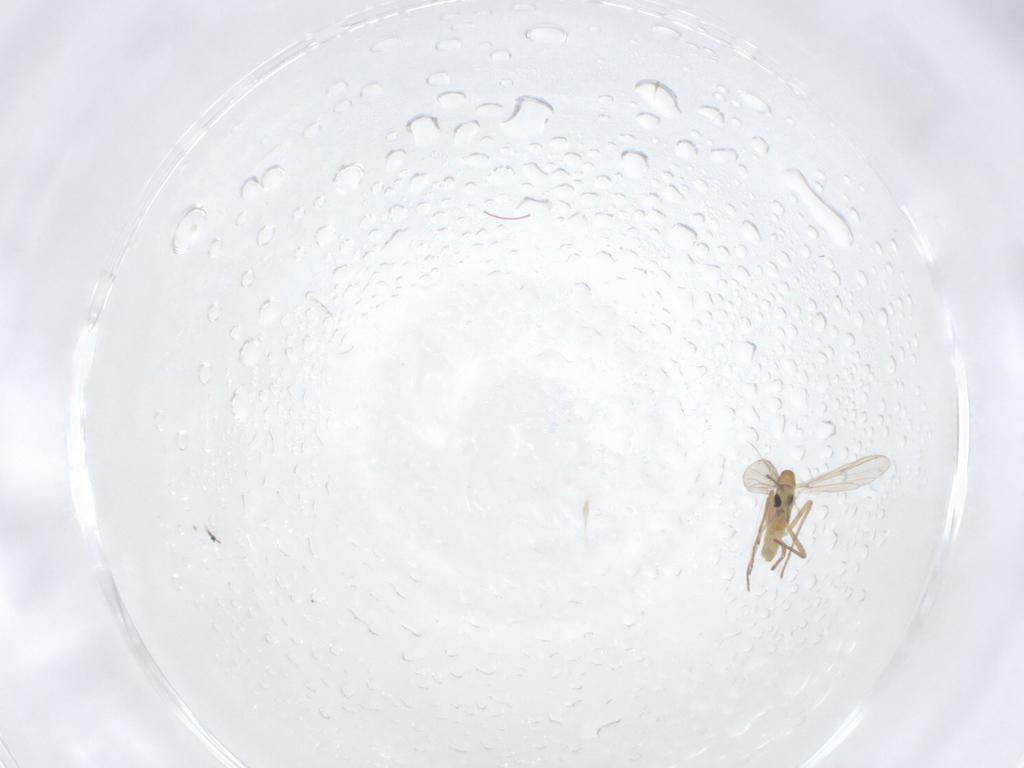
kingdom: Animalia
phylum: Arthropoda
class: Insecta
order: Diptera
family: Chironomidae
